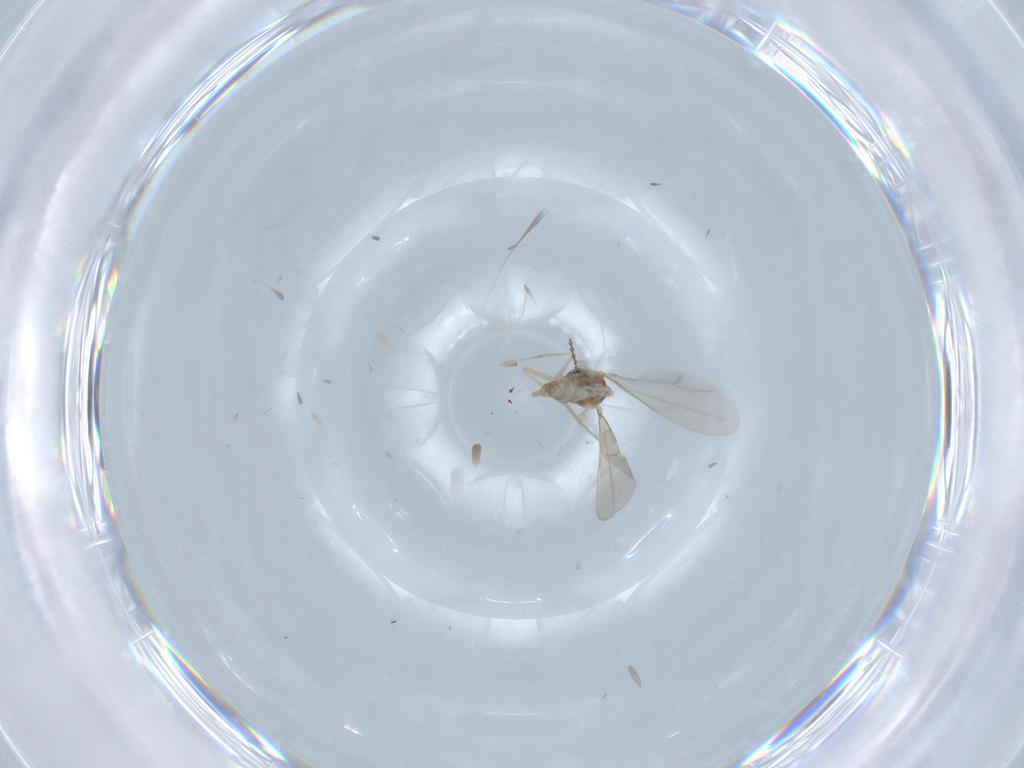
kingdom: Animalia
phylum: Arthropoda
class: Insecta
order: Diptera
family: Cecidomyiidae
